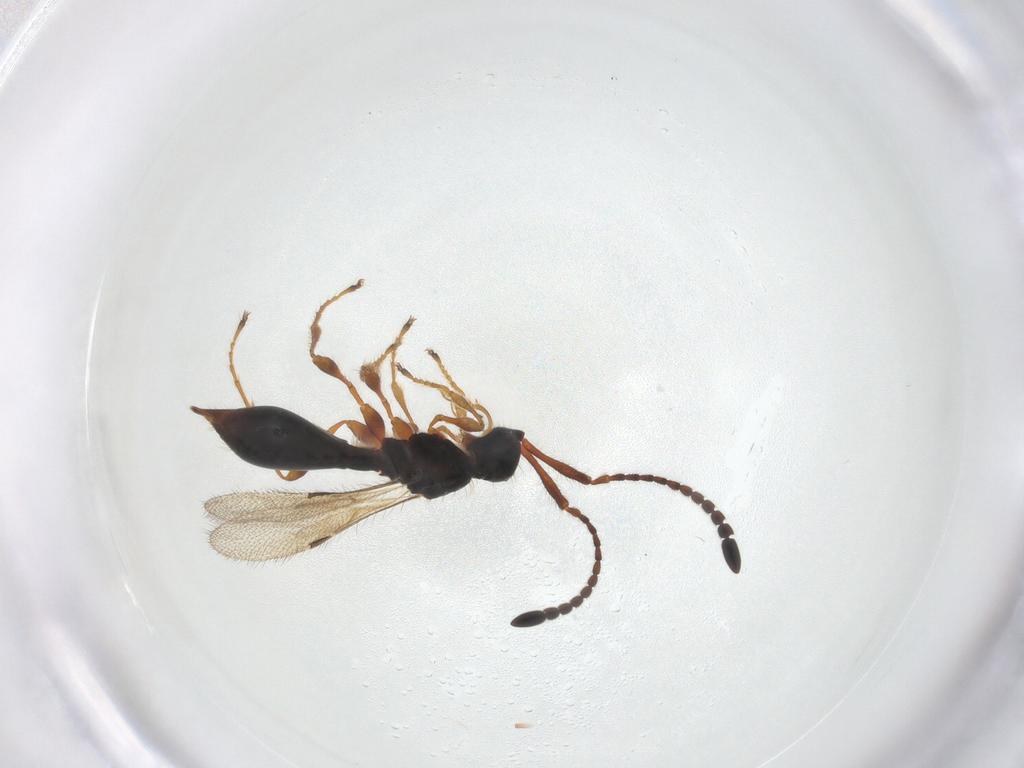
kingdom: Animalia
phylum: Arthropoda
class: Insecta
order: Hymenoptera
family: Diapriidae
